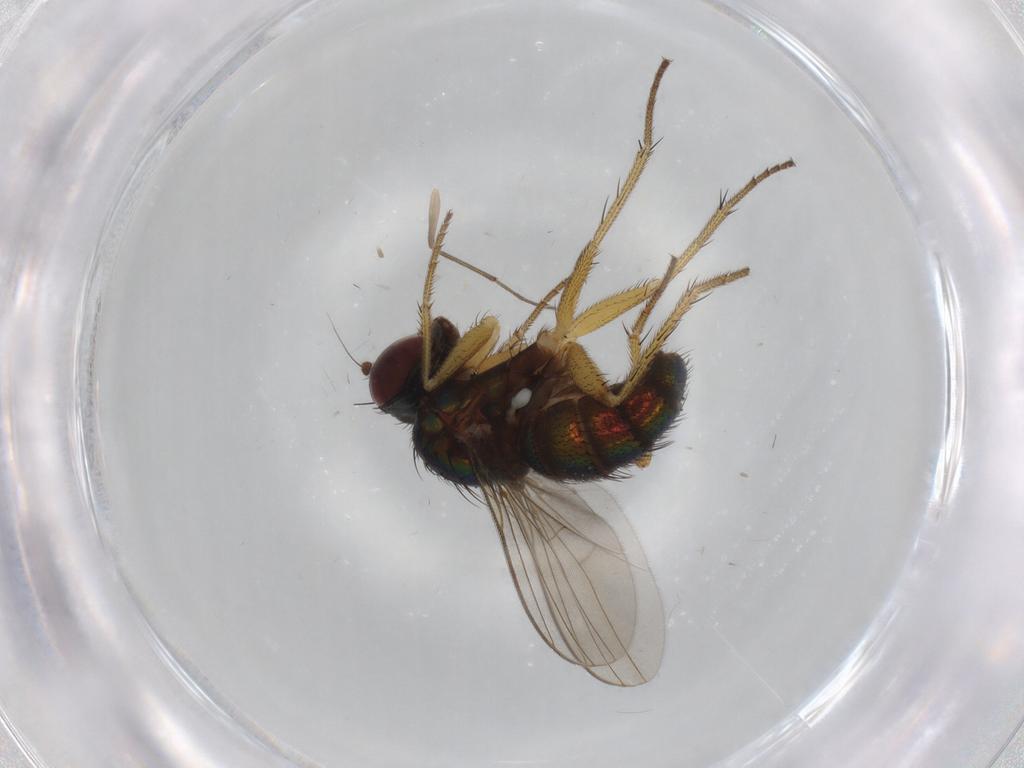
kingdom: Animalia
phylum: Arthropoda
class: Insecta
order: Diptera
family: Dolichopodidae
